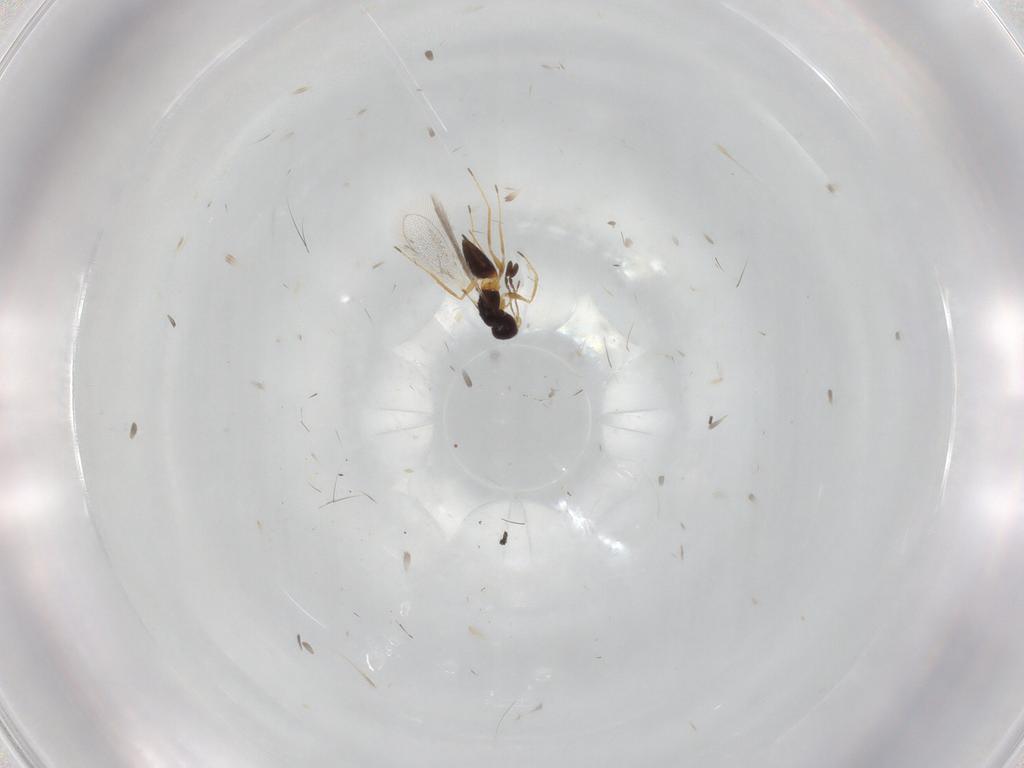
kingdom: Animalia
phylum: Arthropoda
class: Insecta
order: Hymenoptera
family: Mymaridae
